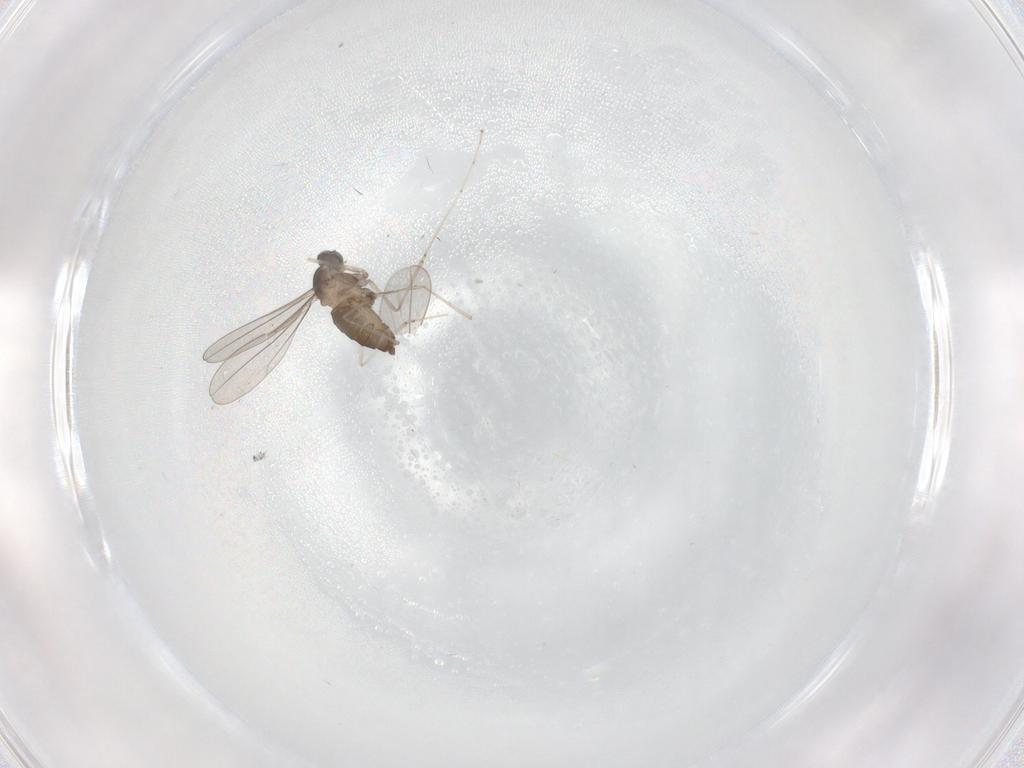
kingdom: Animalia
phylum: Arthropoda
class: Insecta
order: Diptera
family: Cecidomyiidae
